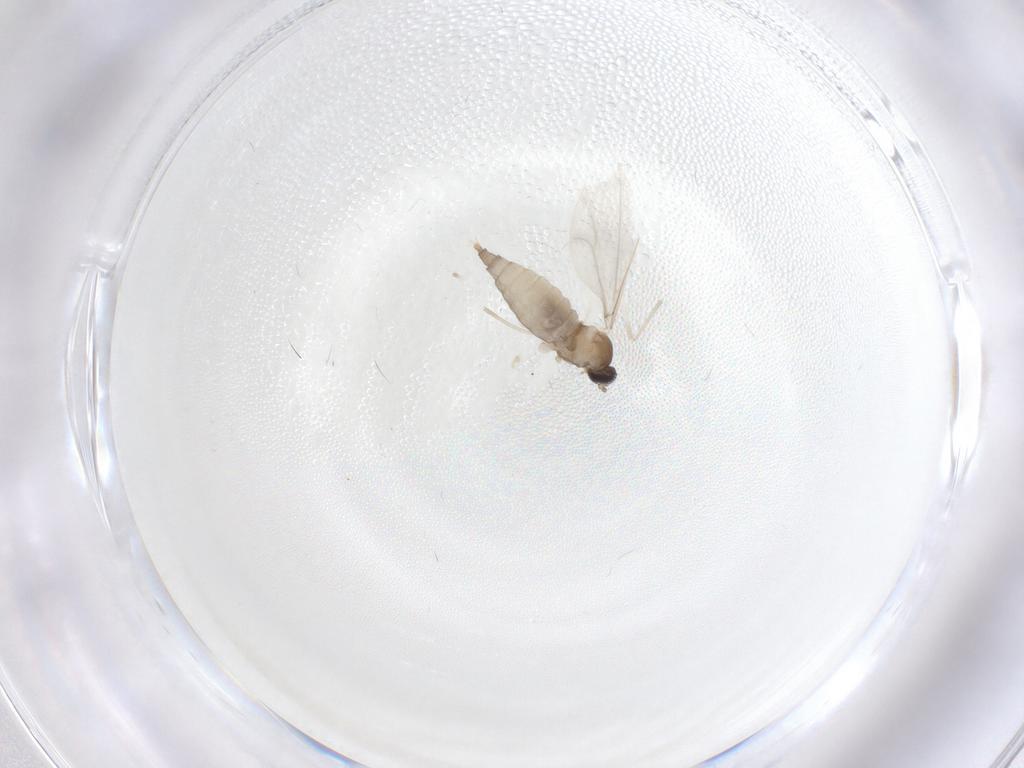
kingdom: Animalia
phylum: Arthropoda
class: Insecta
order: Diptera
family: Cecidomyiidae
